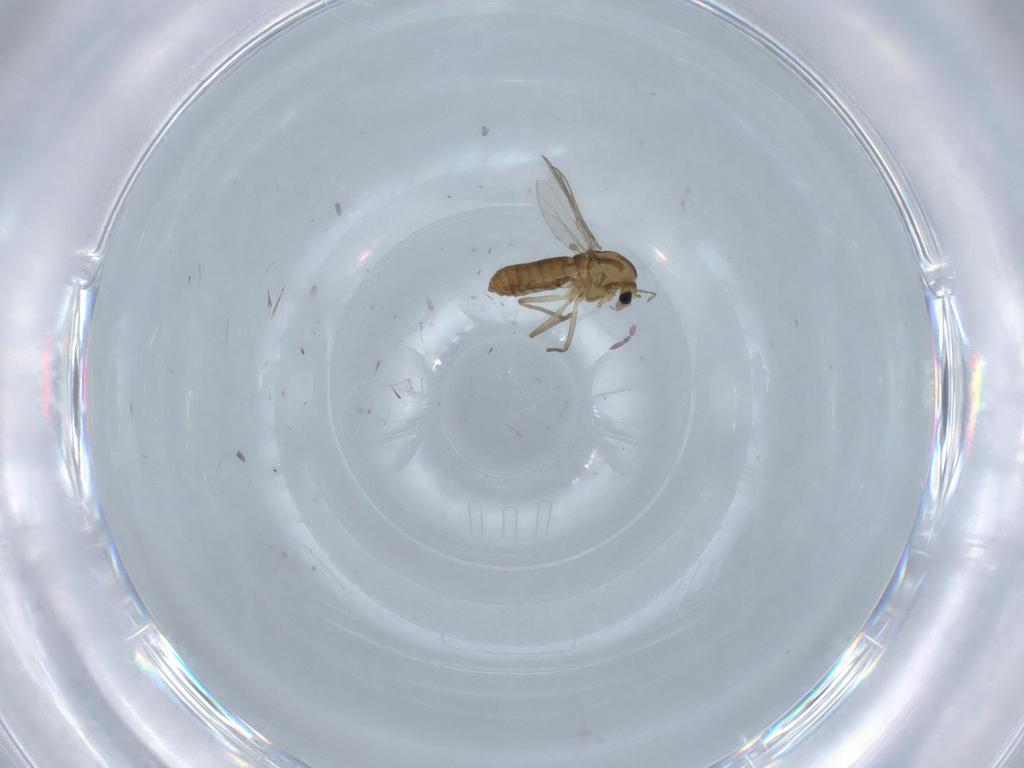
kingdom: Animalia
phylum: Arthropoda
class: Insecta
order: Diptera
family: Chironomidae
